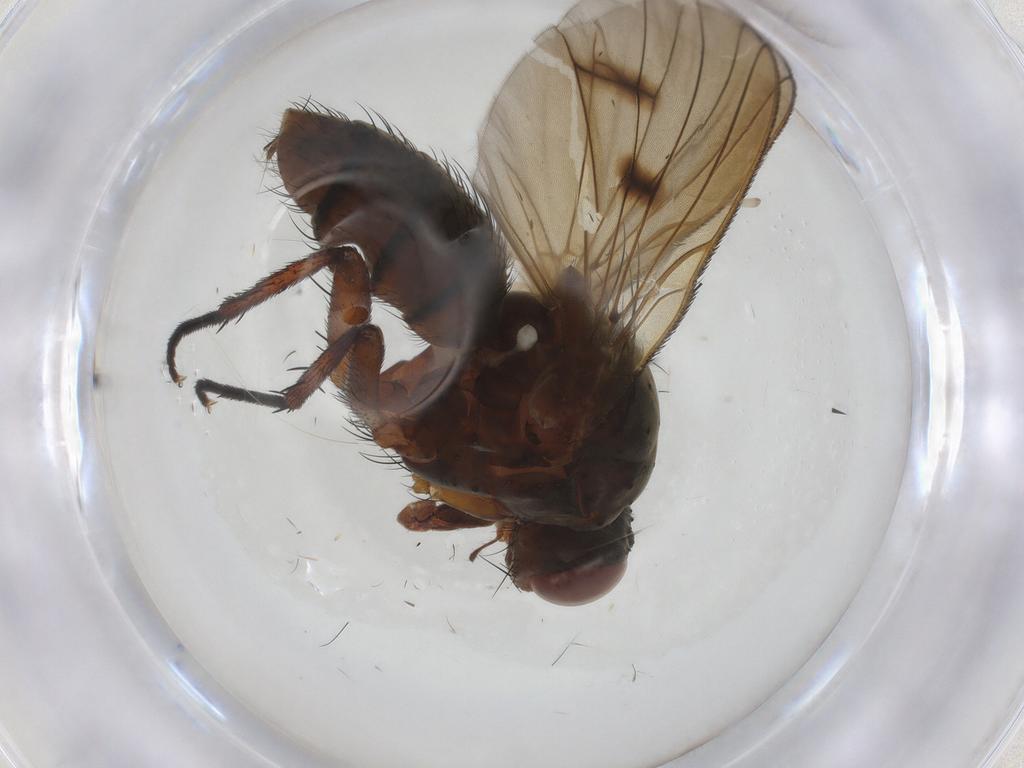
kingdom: Animalia
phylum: Arthropoda
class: Insecta
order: Diptera
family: Anthomyiidae
